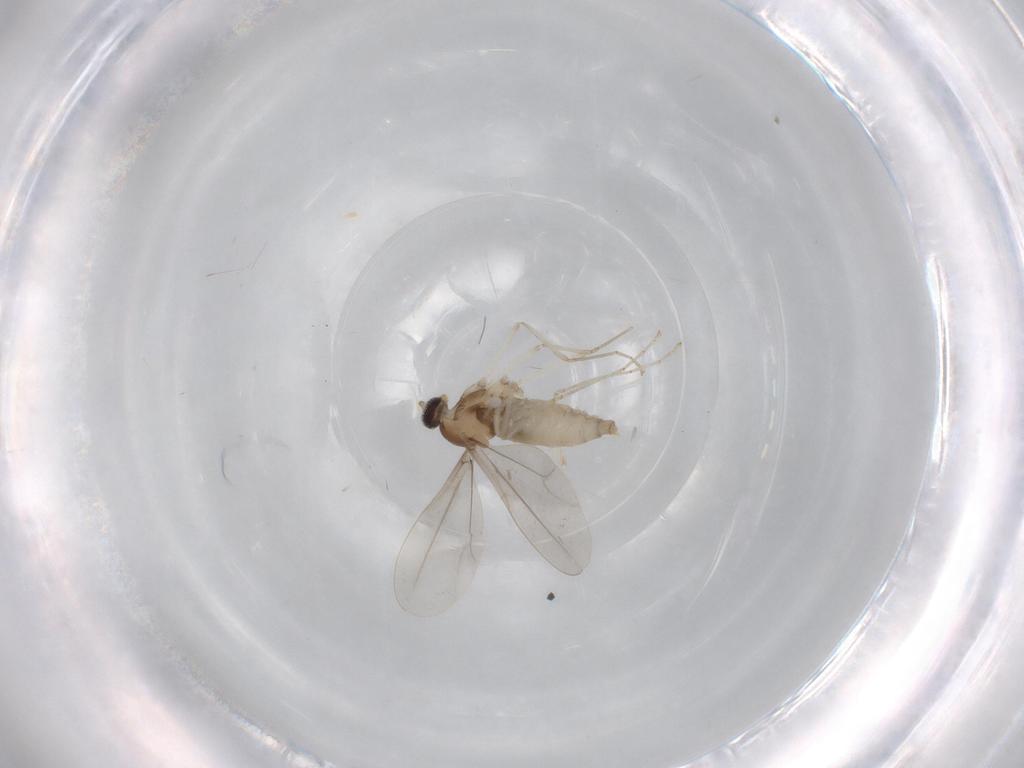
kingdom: Animalia
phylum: Arthropoda
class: Insecta
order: Diptera
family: Cecidomyiidae
